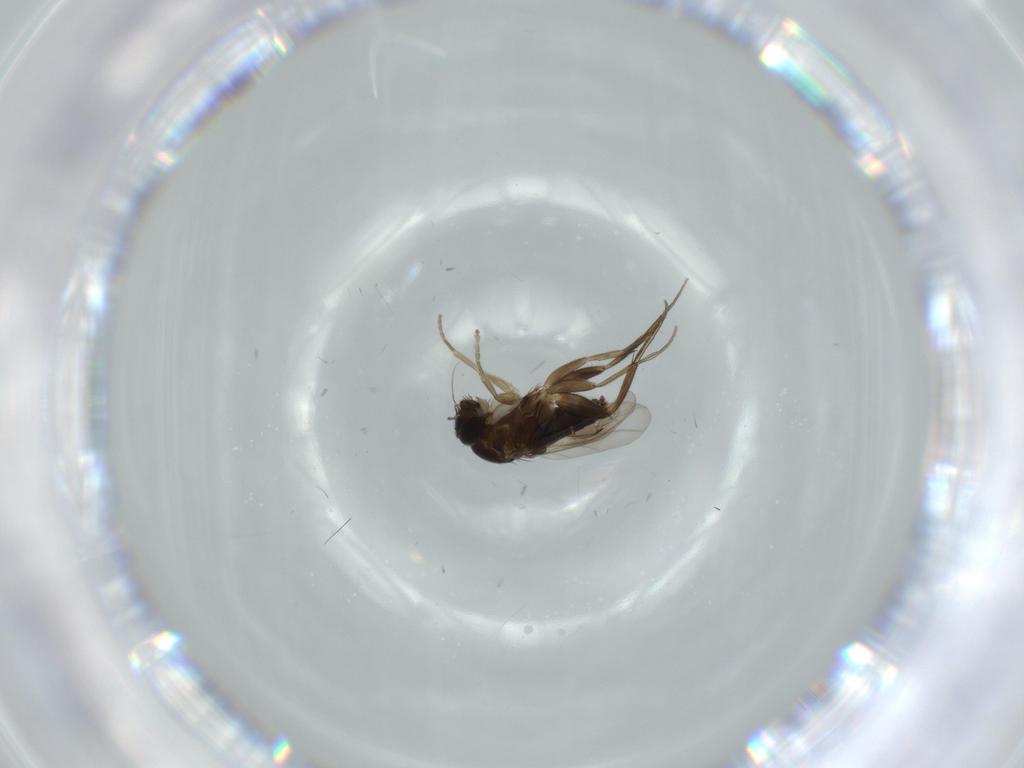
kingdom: Animalia
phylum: Arthropoda
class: Insecta
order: Diptera
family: Phoridae
